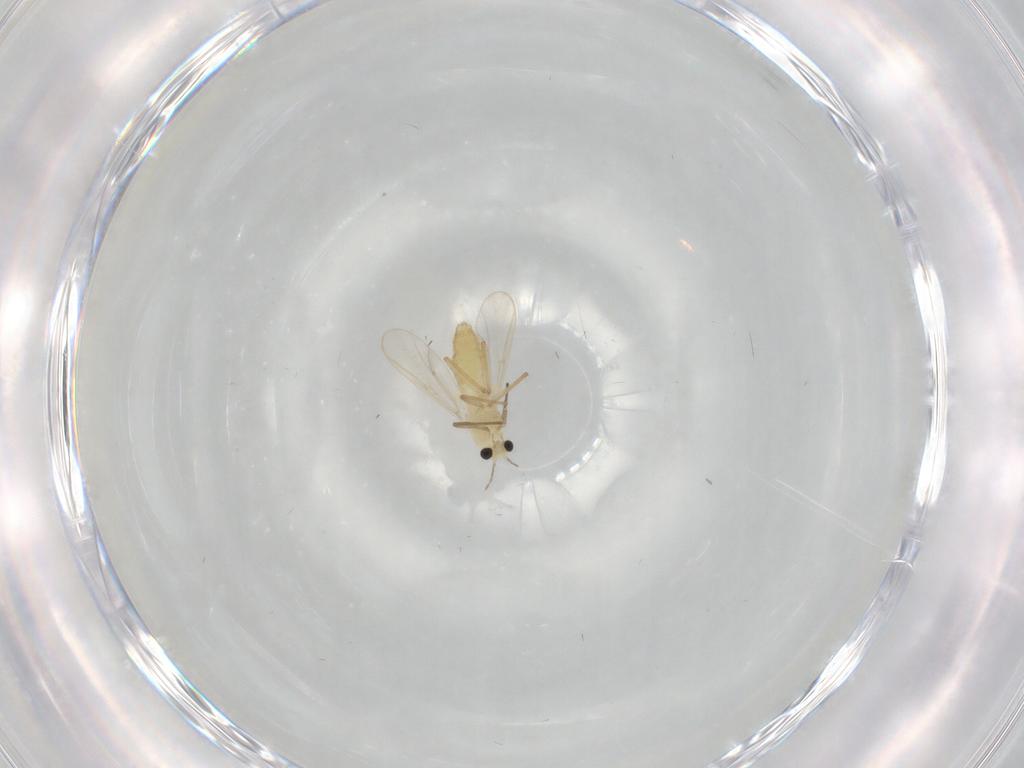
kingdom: Animalia
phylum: Arthropoda
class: Insecta
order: Diptera
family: Chironomidae
